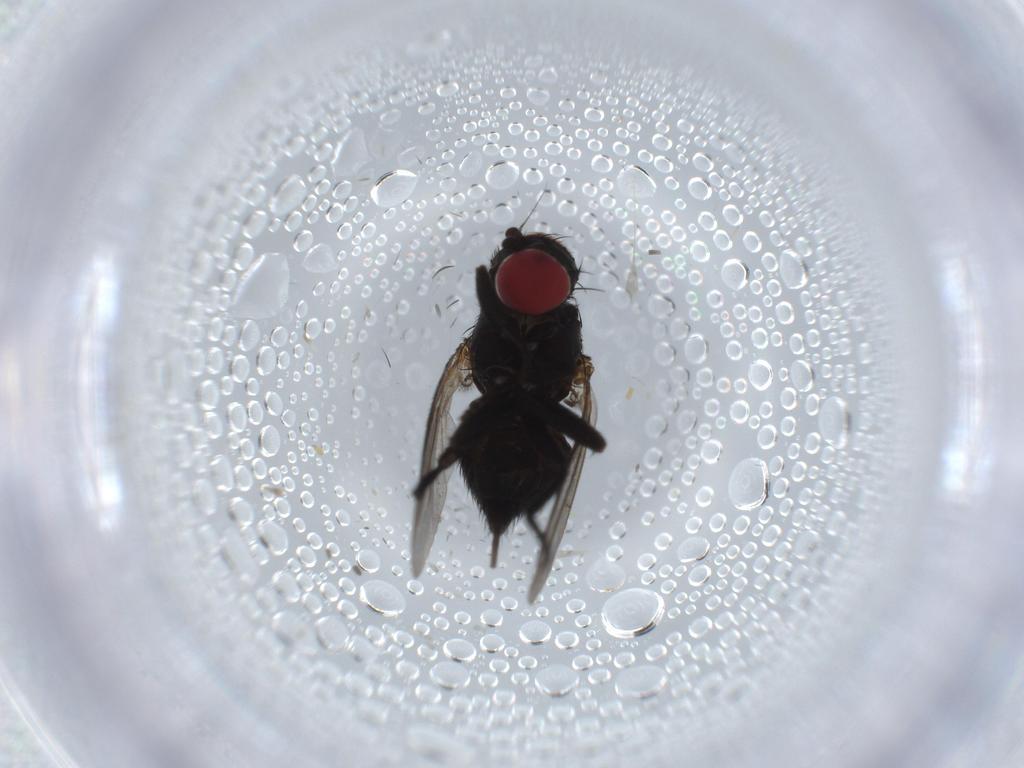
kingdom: Animalia
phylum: Arthropoda
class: Insecta
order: Diptera
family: Agromyzidae
